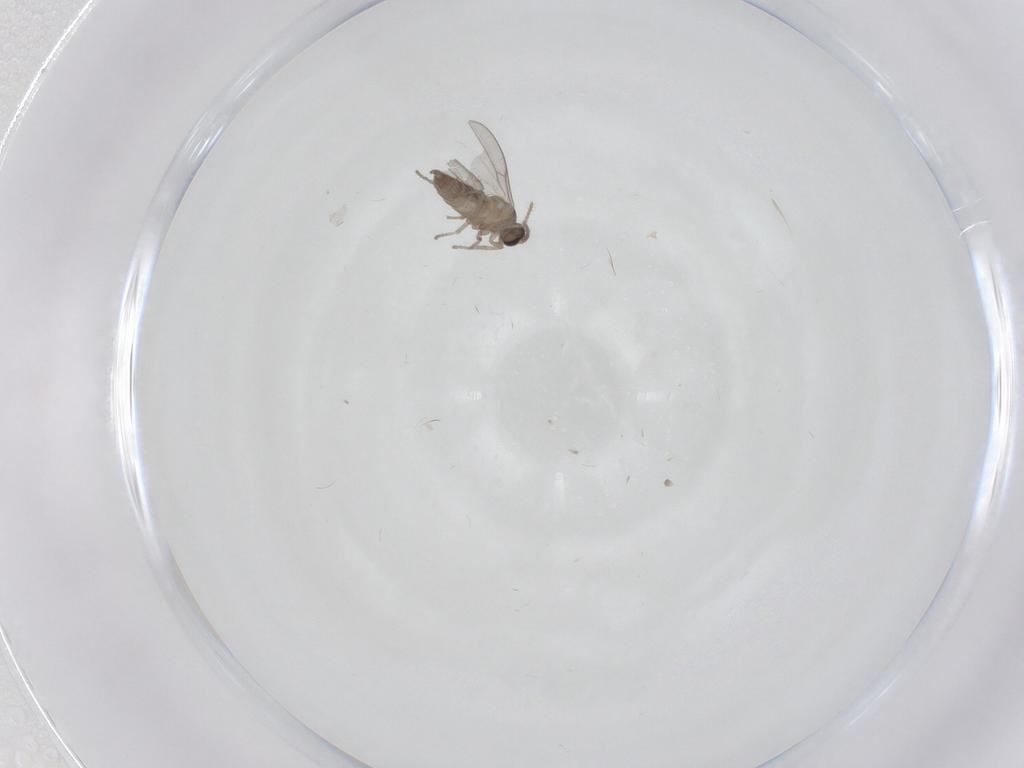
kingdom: Animalia
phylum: Arthropoda
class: Insecta
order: Diptera
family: Cecidomyiidae
